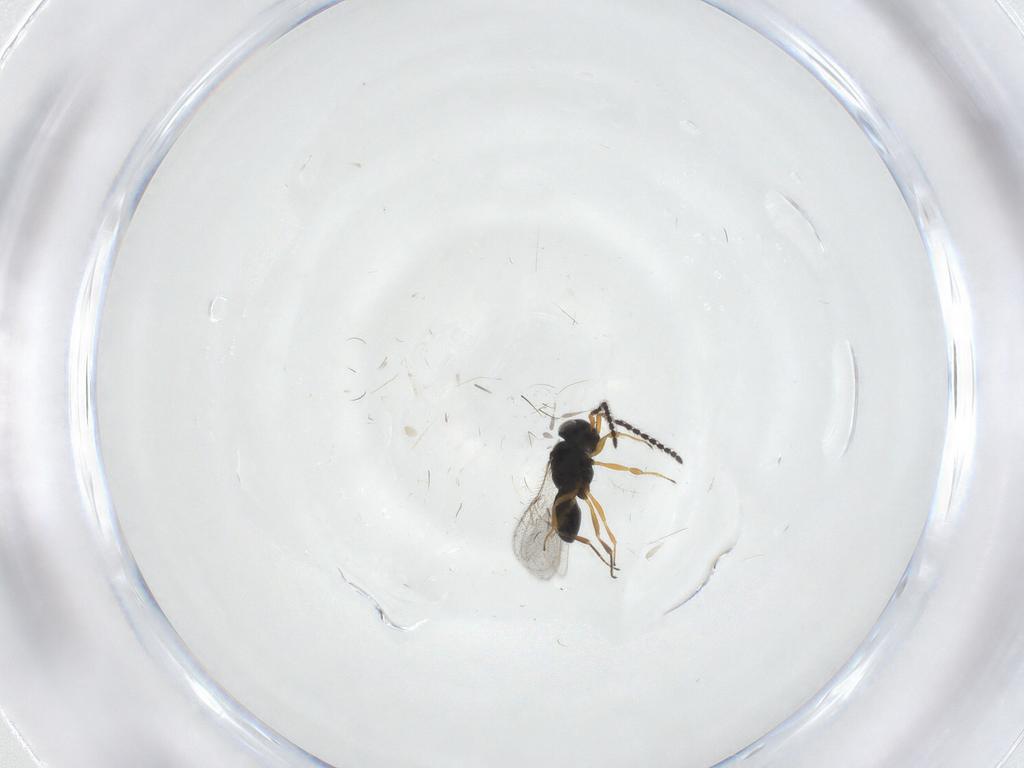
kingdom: Animalia
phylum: Arthropoda
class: Insecta
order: Hymenoptera
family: Scelionidae
